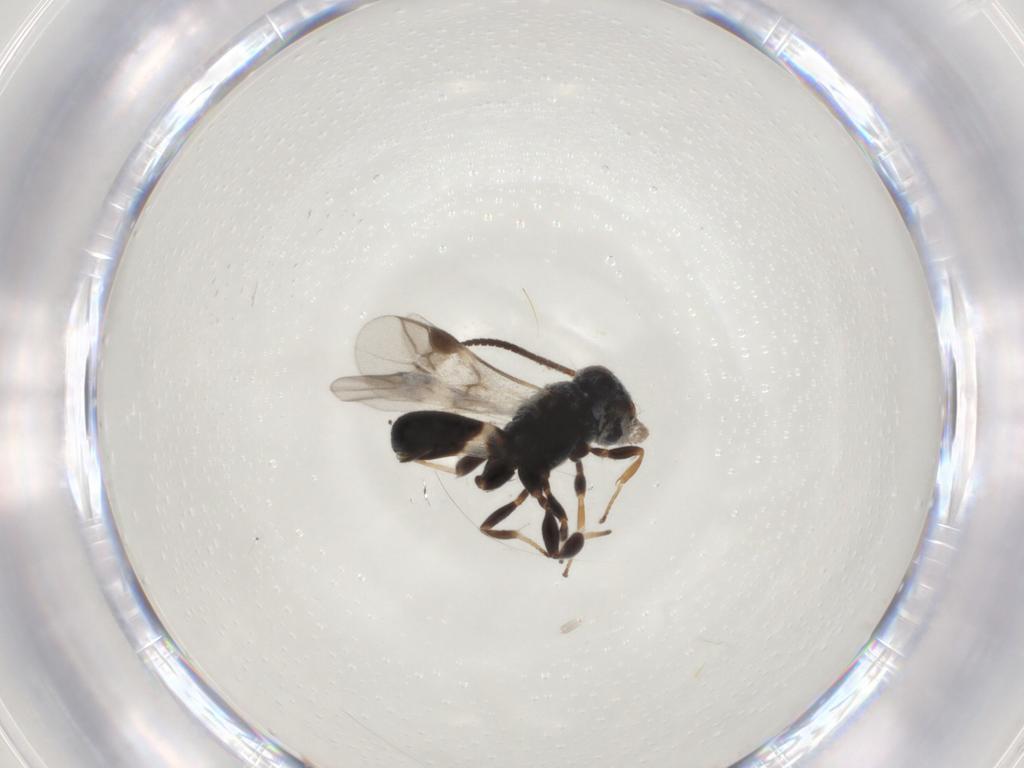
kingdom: Animalia
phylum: Arthropoda
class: Insecta
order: Hymenoptera
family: Braconidae
